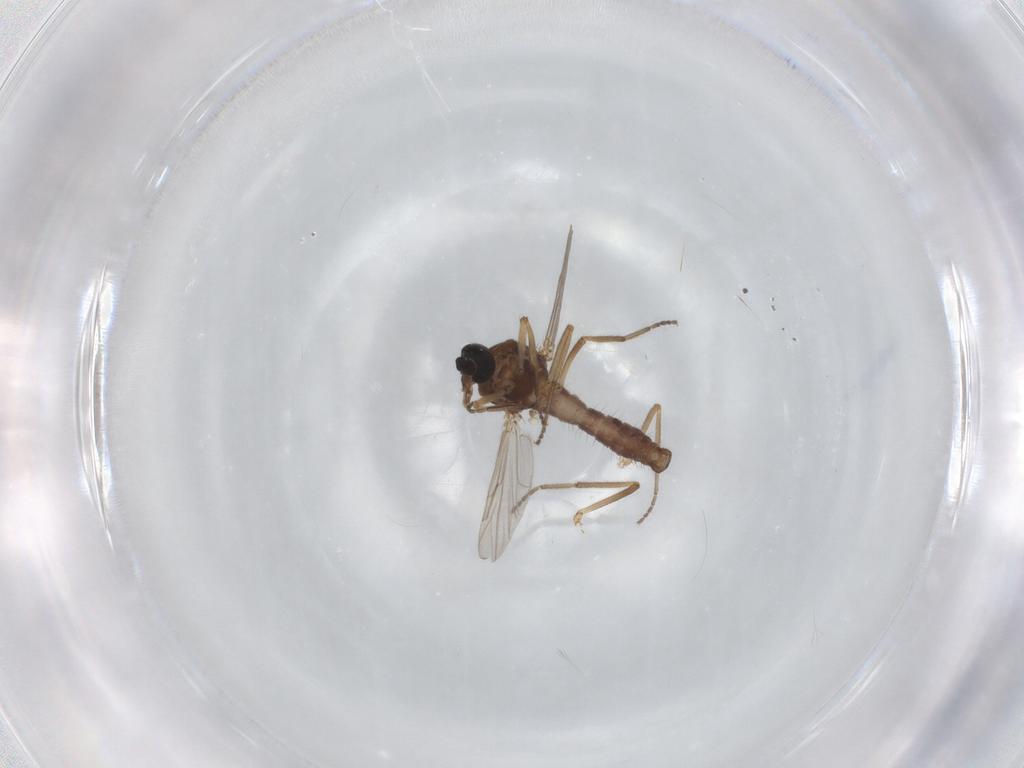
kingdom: Animalia
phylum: Arthropoda
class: Insecta
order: Diptera
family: Ceratopogonidae
